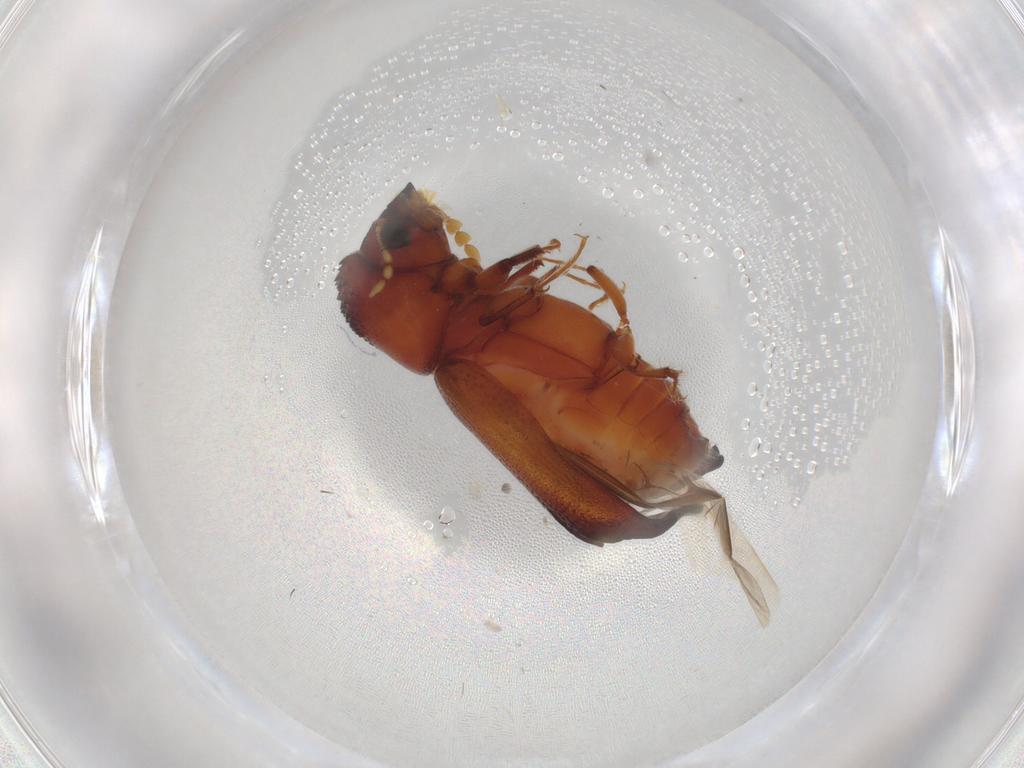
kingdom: Animalia
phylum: Arthropoda
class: Insecta
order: Coleoptera
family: Bostrichidae
